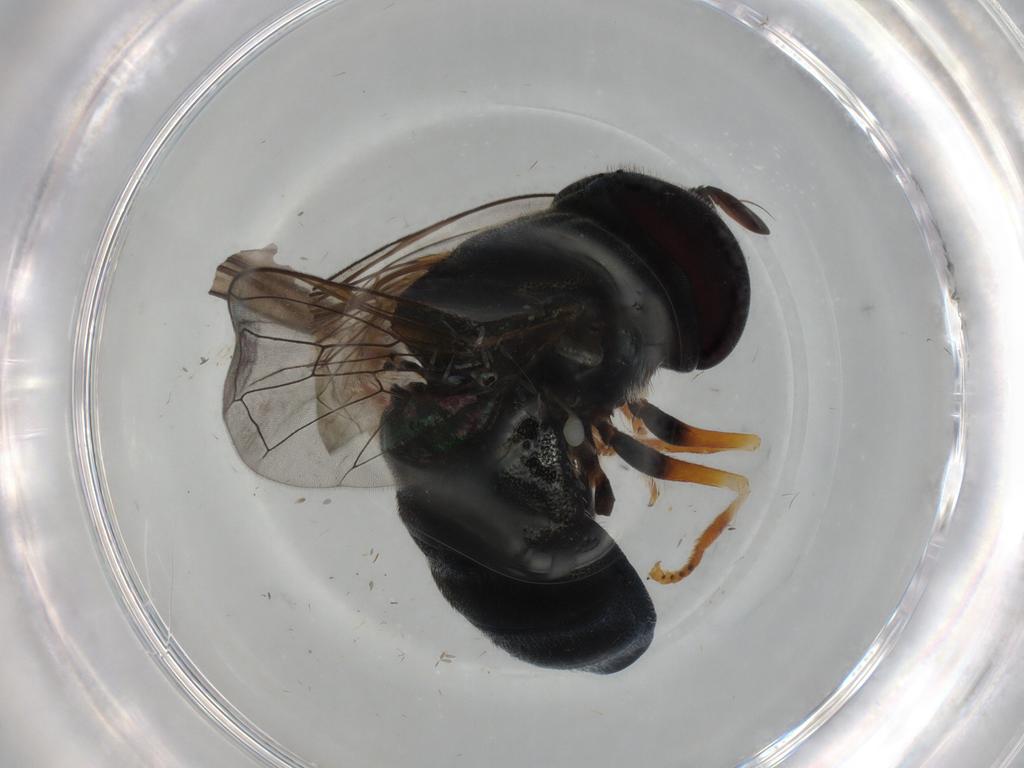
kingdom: Animalia
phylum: Arthropoda
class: Insecta
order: Diptera
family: Syrphidae
